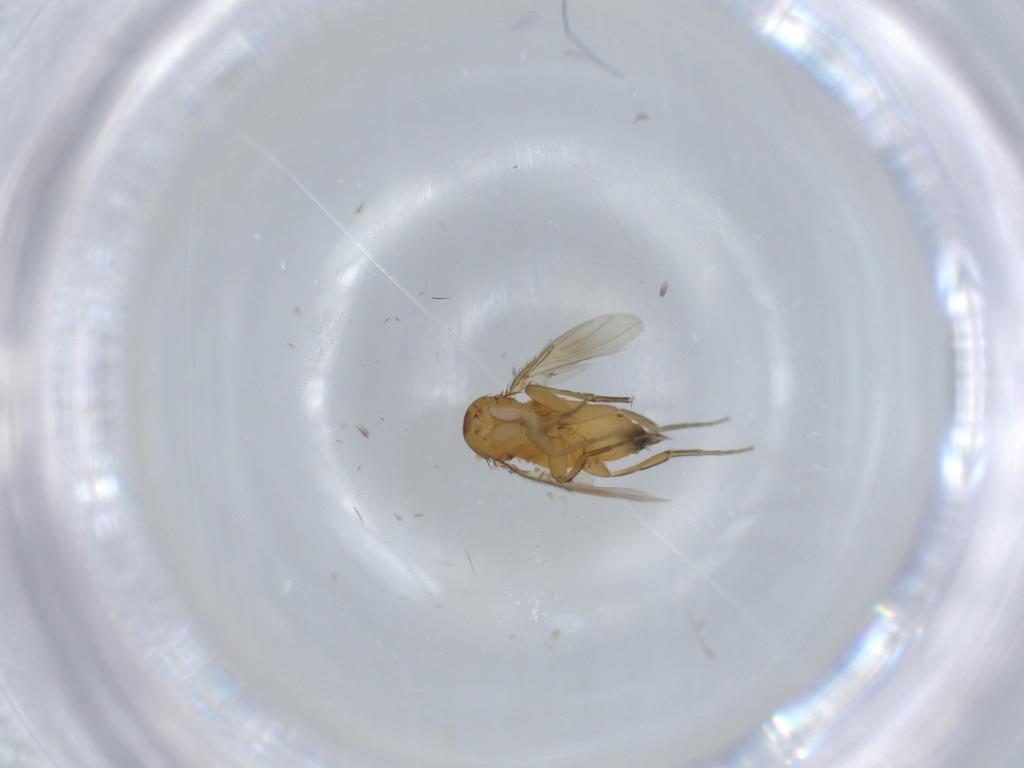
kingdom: Animalia
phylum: Arthropoda
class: Insecta
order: Diptera
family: Phoridae
